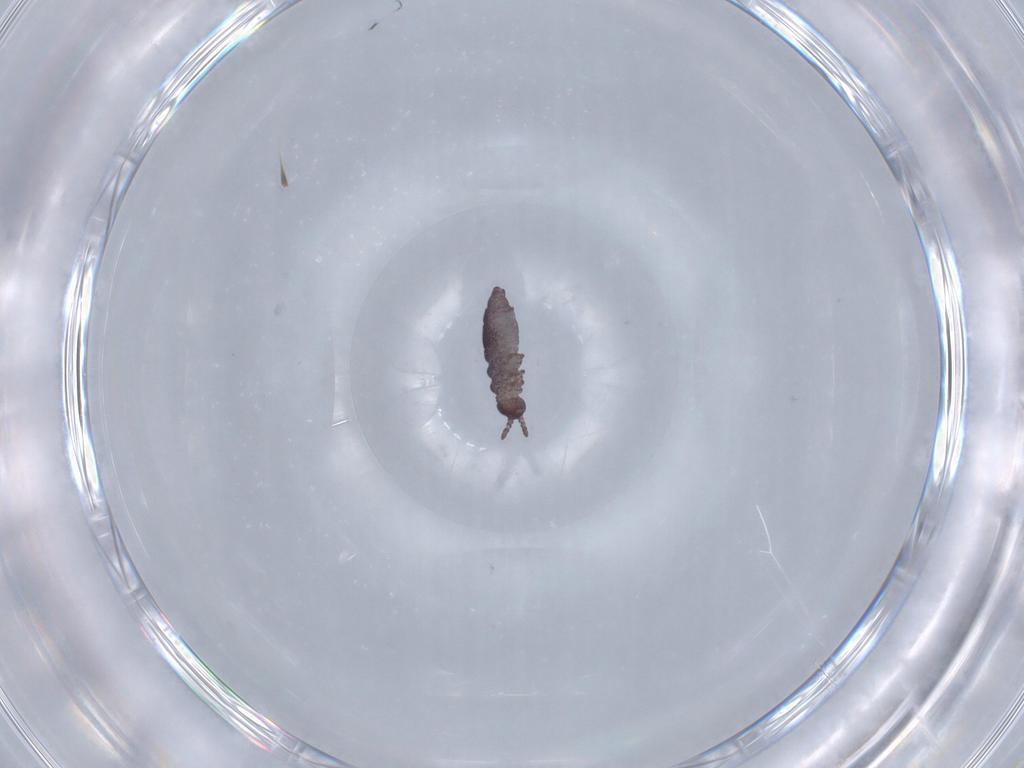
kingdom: Animalia
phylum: Arthropoda
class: Collembola
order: Poduromorpha
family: Hypogastruridae
